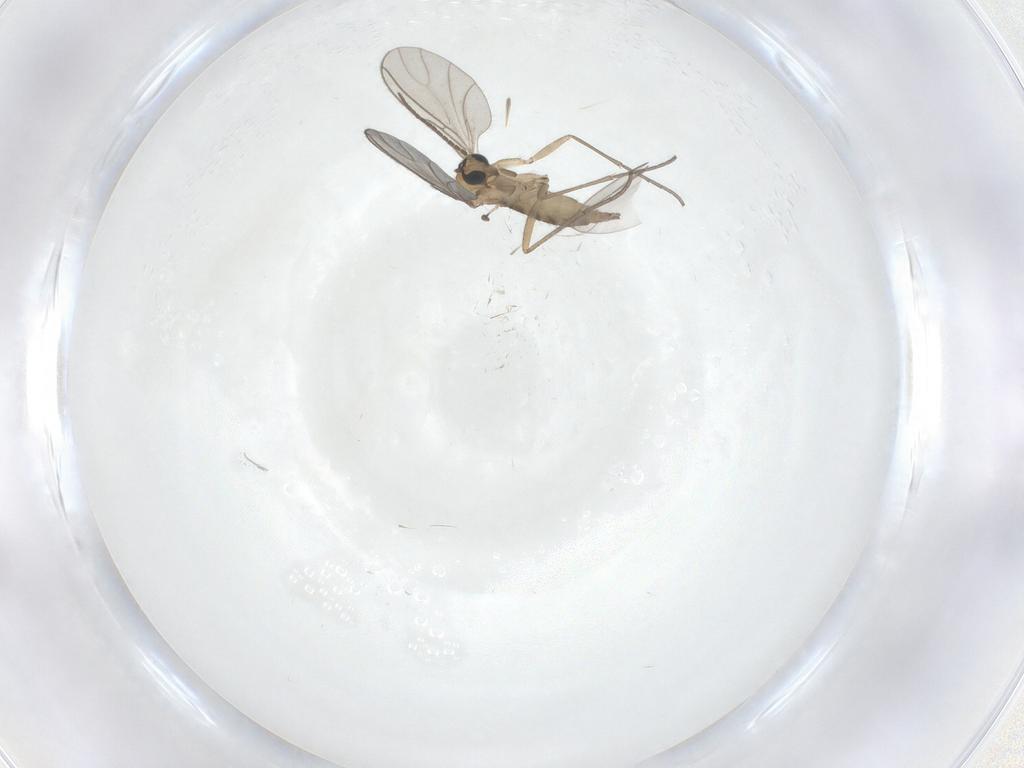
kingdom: Animalia
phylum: Arthropoda
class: Insecta
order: Diptera
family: Sciaridae
